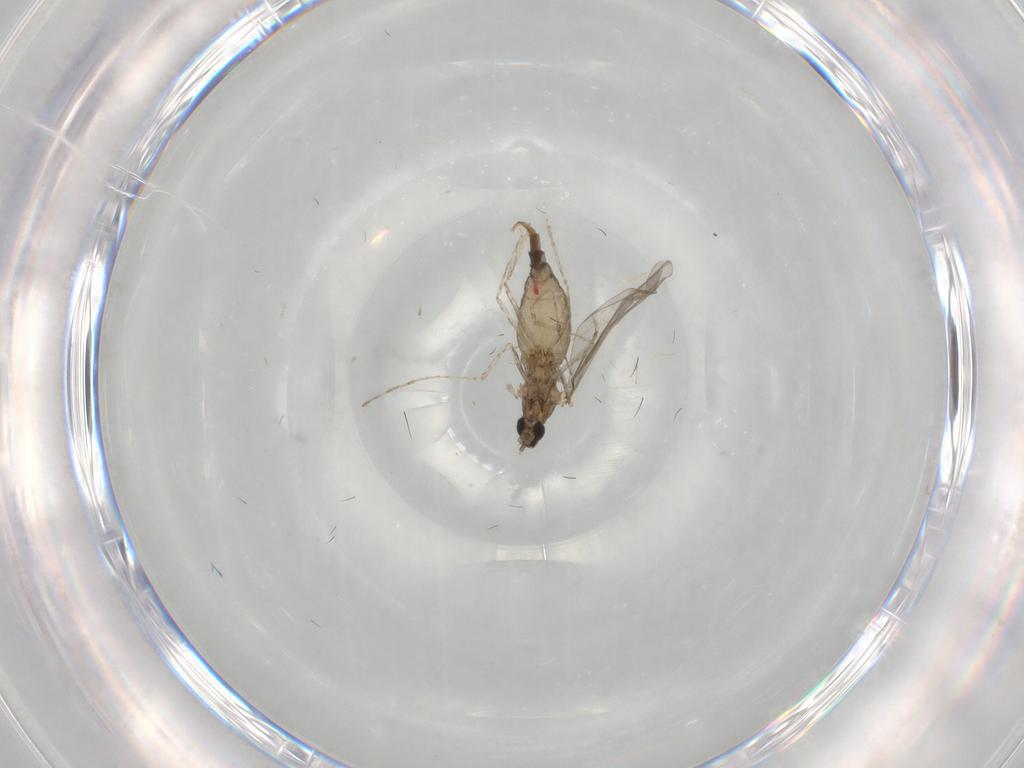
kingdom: Animalia
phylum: Arthropoda
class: Insecta
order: Diptera
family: Cecidomyiidae
